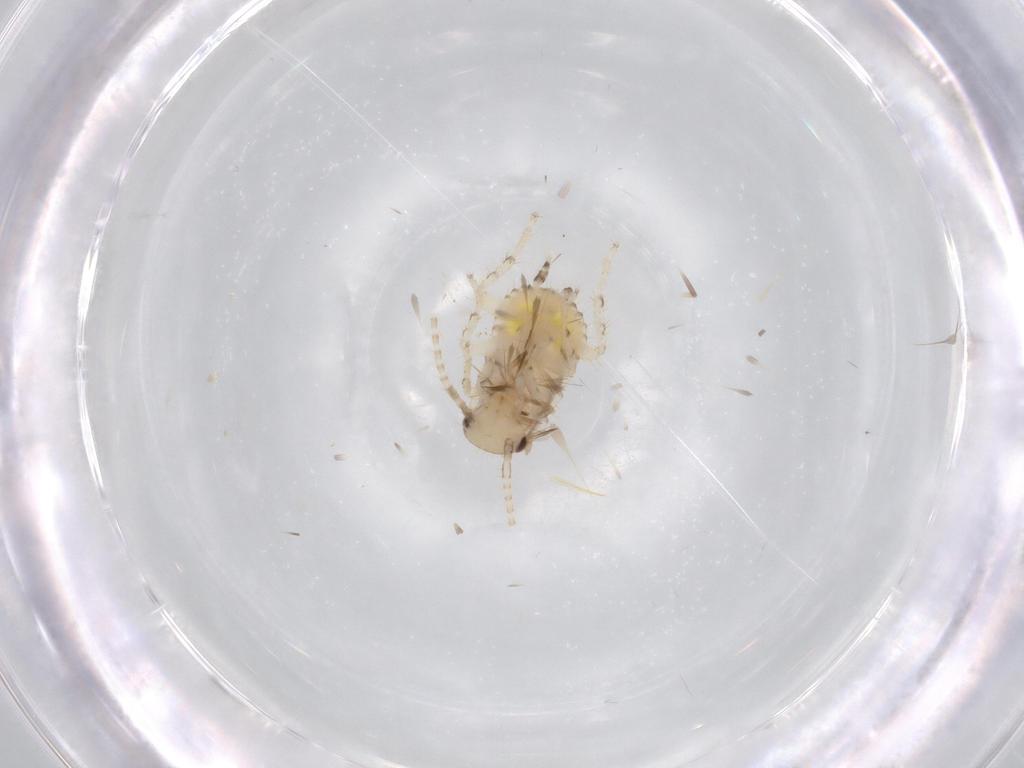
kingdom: Animalia
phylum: Arthropoda
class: Insecta
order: Blattodea
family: Ectobiidae
